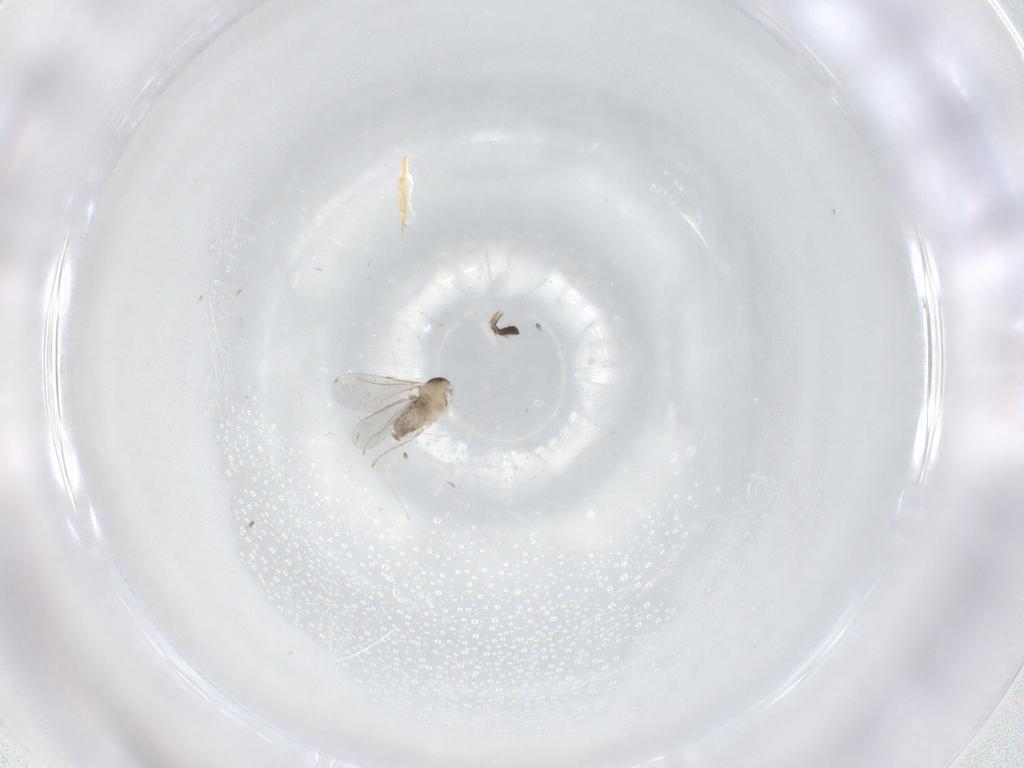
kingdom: Animalia
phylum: Arthropoda
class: Insecta
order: Diptera
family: Cecidomyiidae
